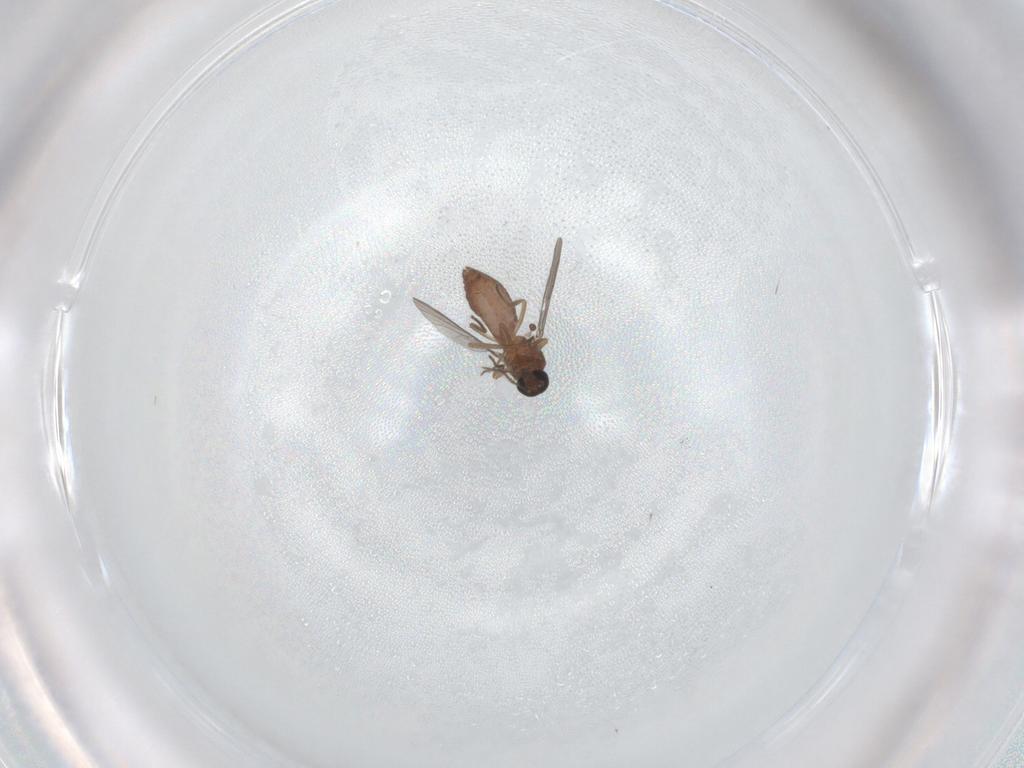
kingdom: Animalia
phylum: Arthropoda
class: Insecta
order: Diptera
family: Ceratopogonidae
